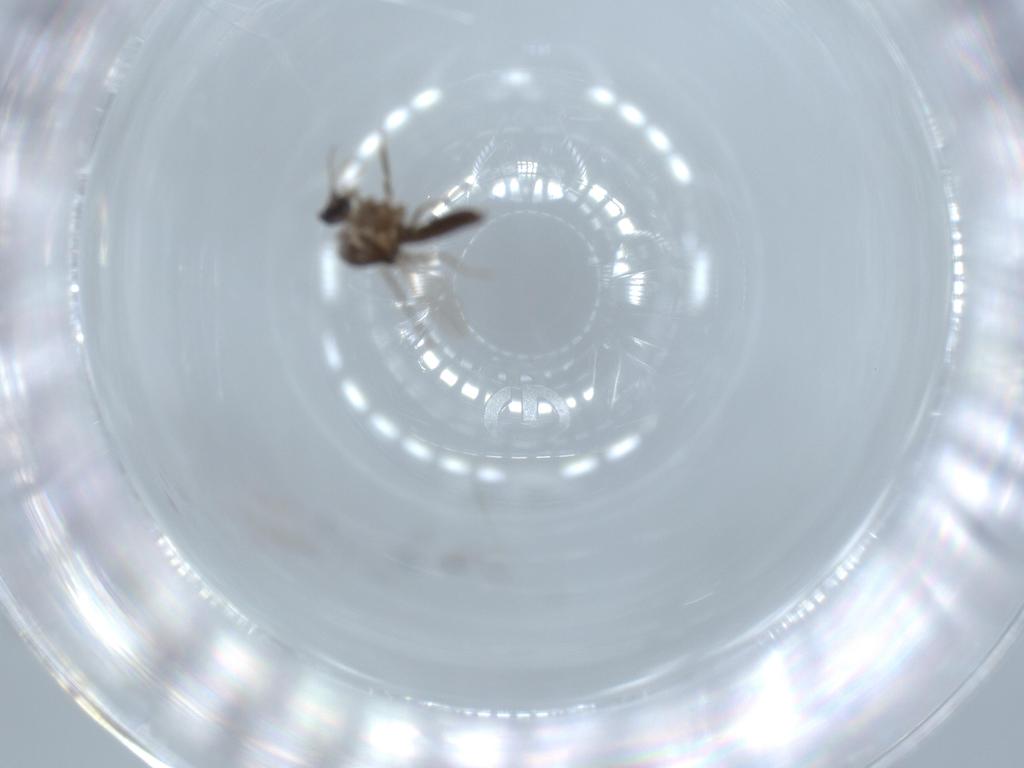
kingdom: Animalia
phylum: Arthropoda
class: Insecta
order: Diptera
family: Ceratopogonidae
